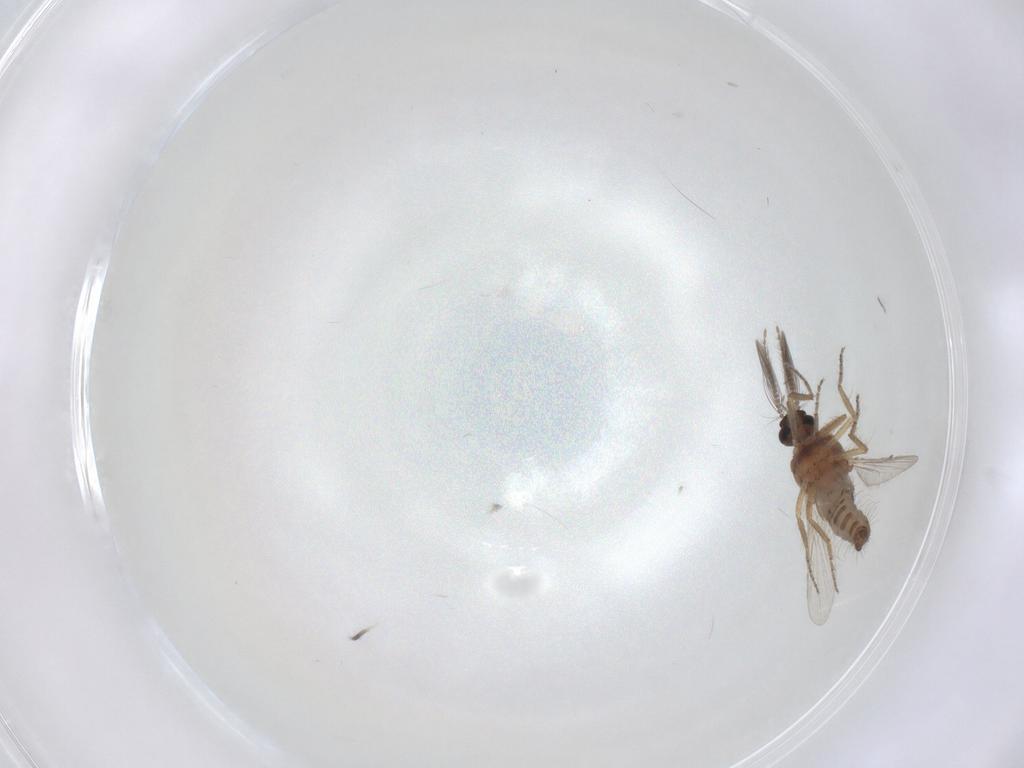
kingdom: Animalia
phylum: Arthropoda
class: Insecta
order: Diptera
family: Ceratopogonidae
